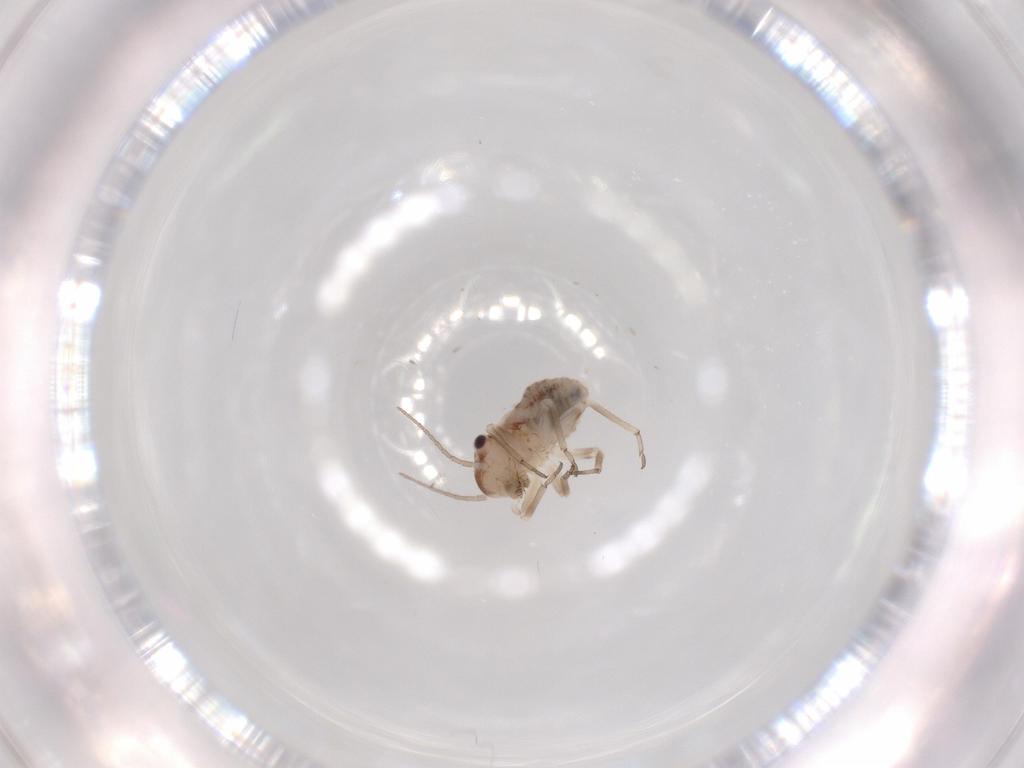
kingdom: Animalia
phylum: Arthropoda
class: Insecta
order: Psocodea
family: Psocidae
